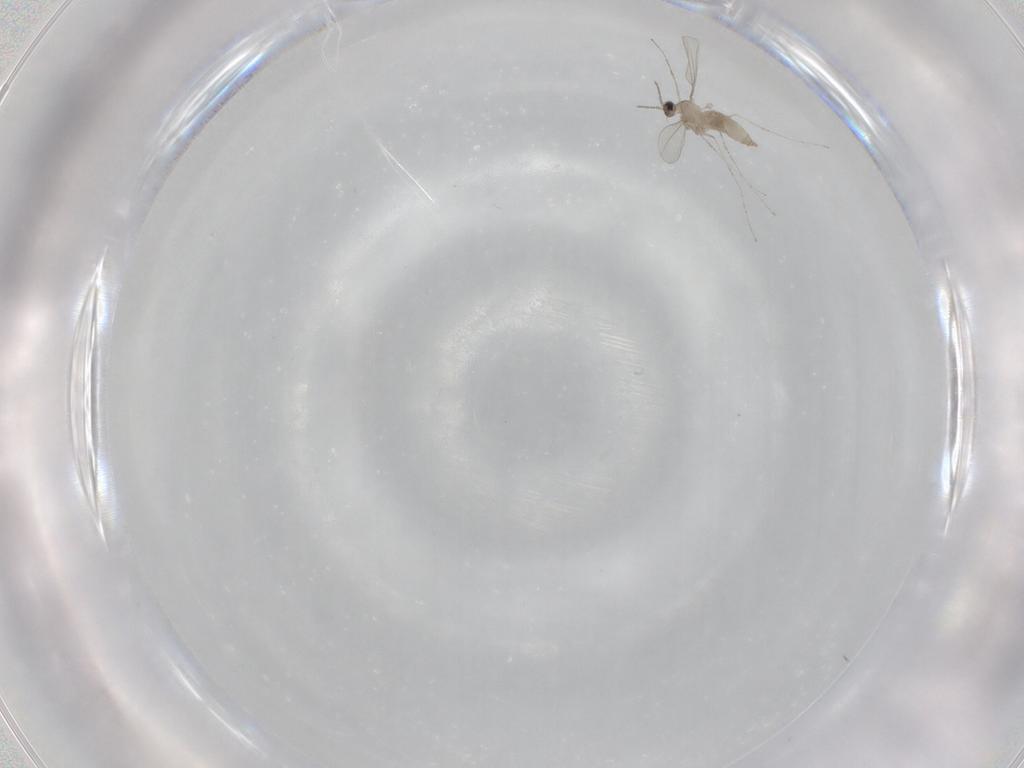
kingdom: Animalia
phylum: Arthropoda
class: Insecta
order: Diptera
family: Cecidomyiidae
